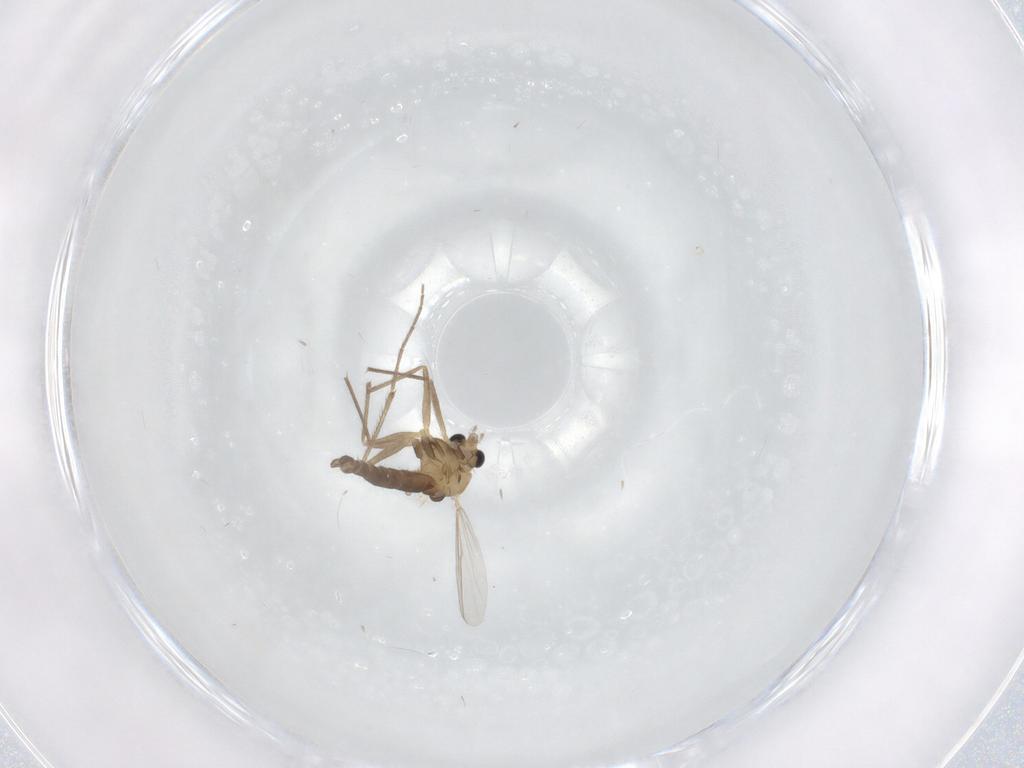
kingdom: Animalia
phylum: Arthropoda
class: Insecta
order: Diptera
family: Chironomidae
